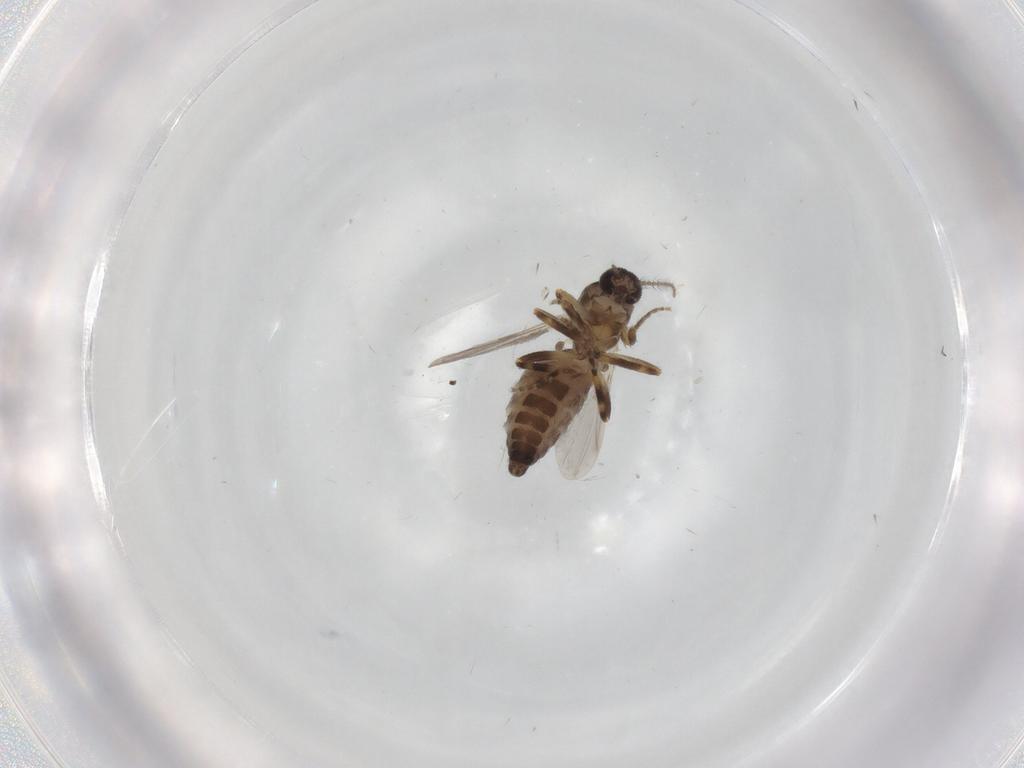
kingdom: Animalia
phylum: Arthropoda
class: Insecta
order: Diptera
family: Ceratopogonidae
